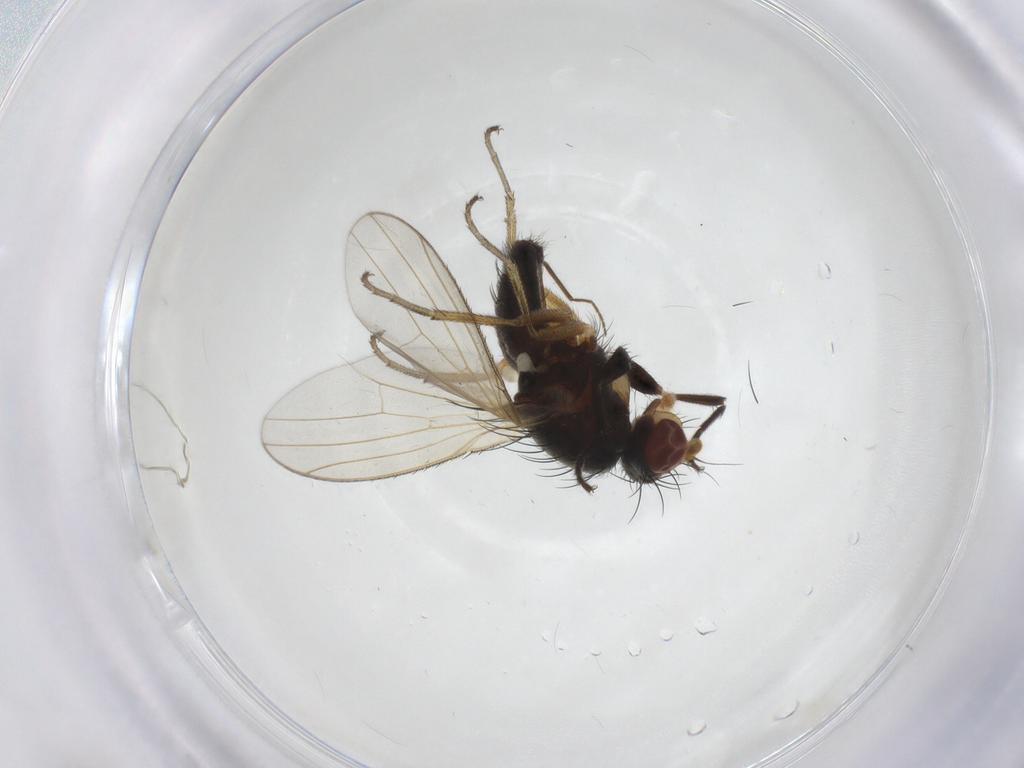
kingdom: Animalia
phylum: Arthropoda
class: Insecta
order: Diptera
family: Heleomyzidae
